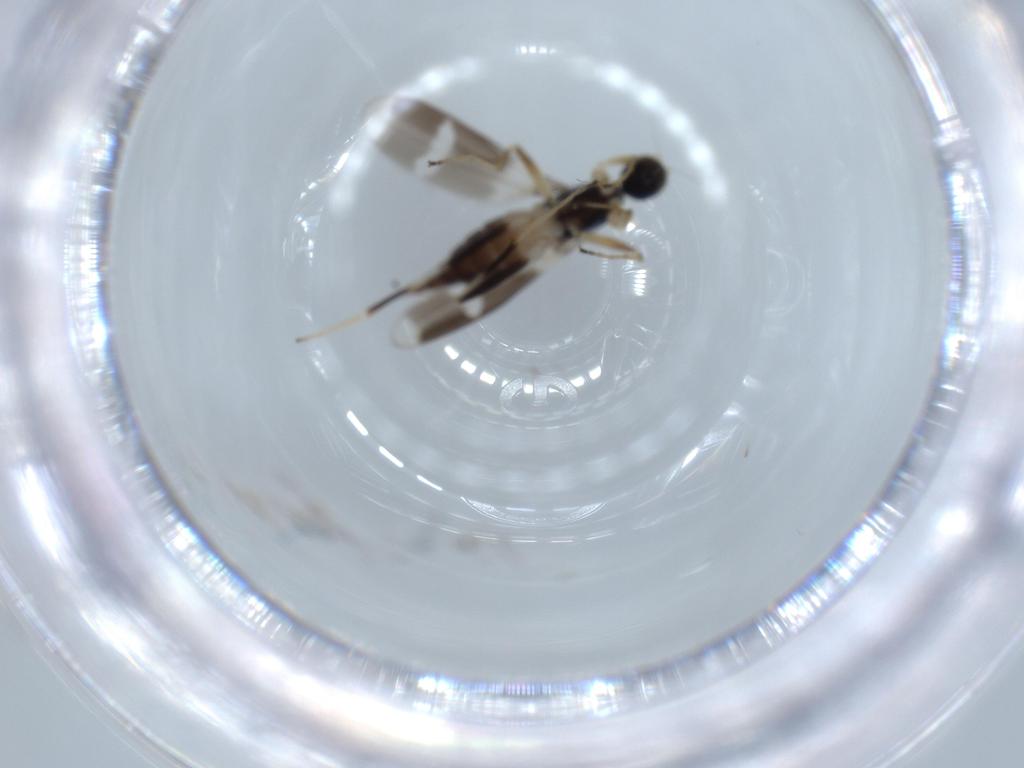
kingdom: Animalia
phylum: Arthropoda
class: Insecta
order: Diptera
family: Hybotidae
